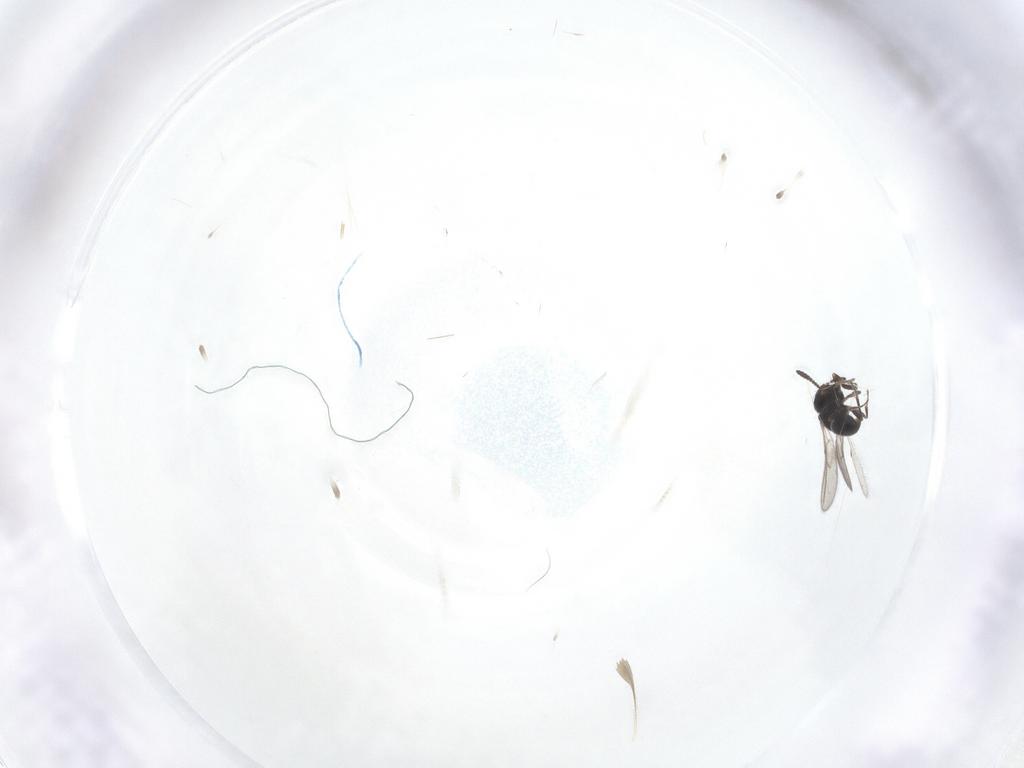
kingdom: Animalia
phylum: Arthropoda
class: Insecta
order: Hymenoptera
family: Scelionidae
